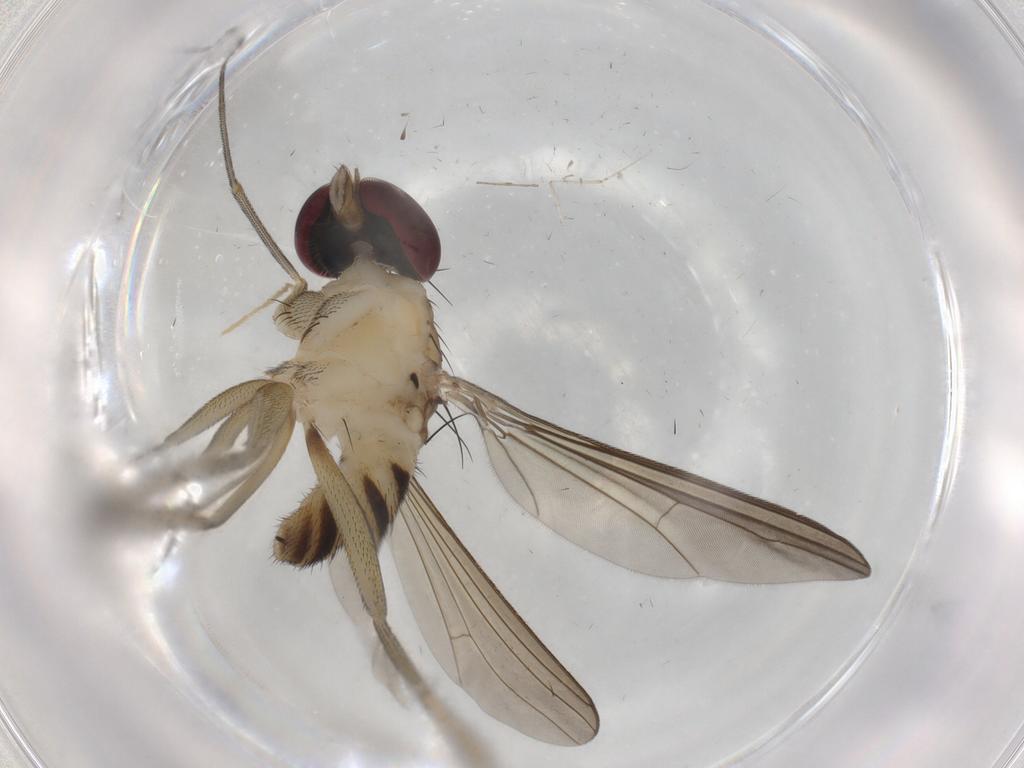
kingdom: Animalia
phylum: Arthropoda
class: Insecta
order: Diptera
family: Dolichopodidae
